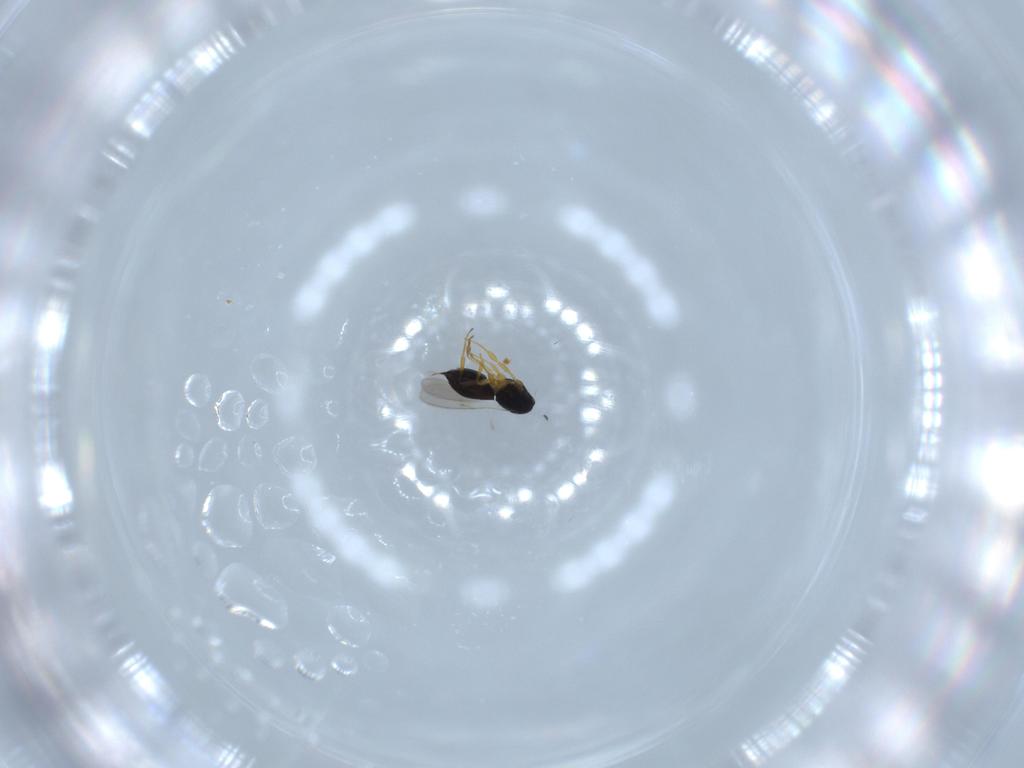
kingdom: Animalia
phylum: Arthropoda
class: Insecta
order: Hymenoptera
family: Scelionidae
